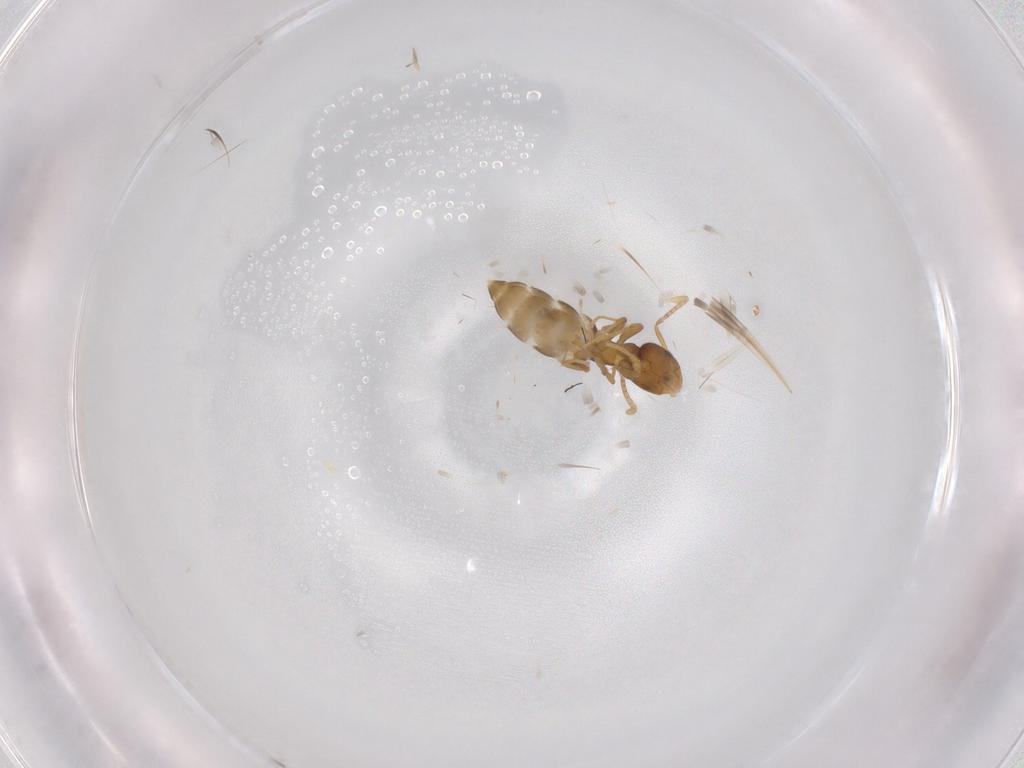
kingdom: Animalia
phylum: Arthropoda
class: Insecta
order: Hymenoptera
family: Formicidae
